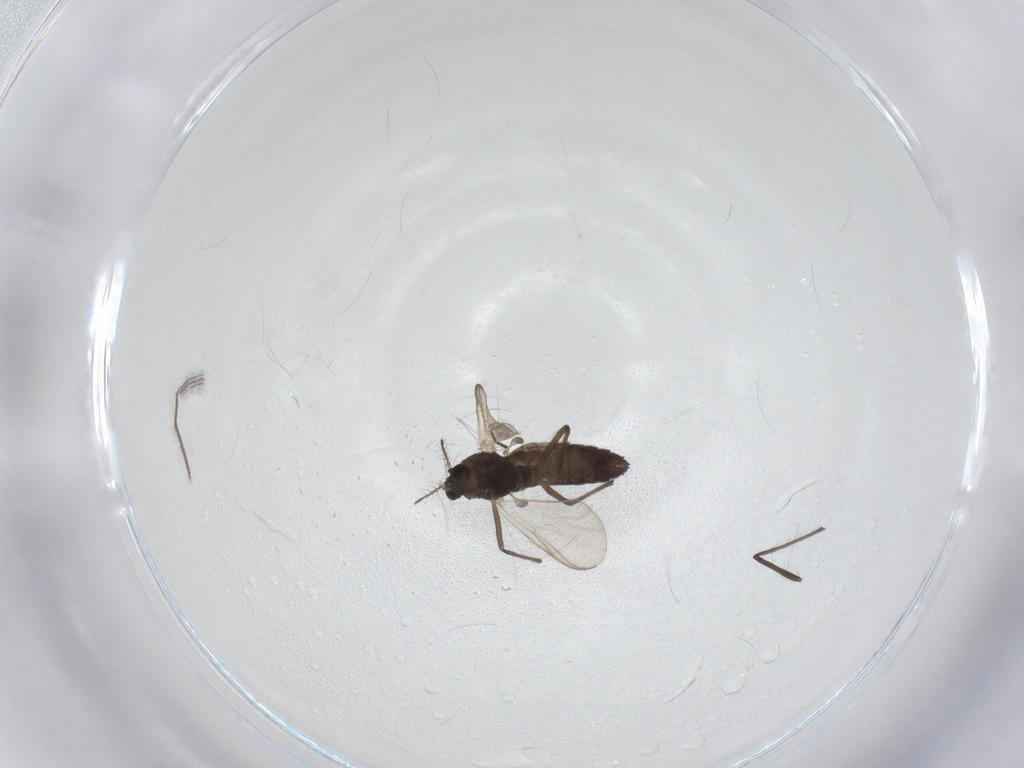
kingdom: Animalia
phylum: Arthropoda
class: Insecta
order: Diptera
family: Chironomidae
